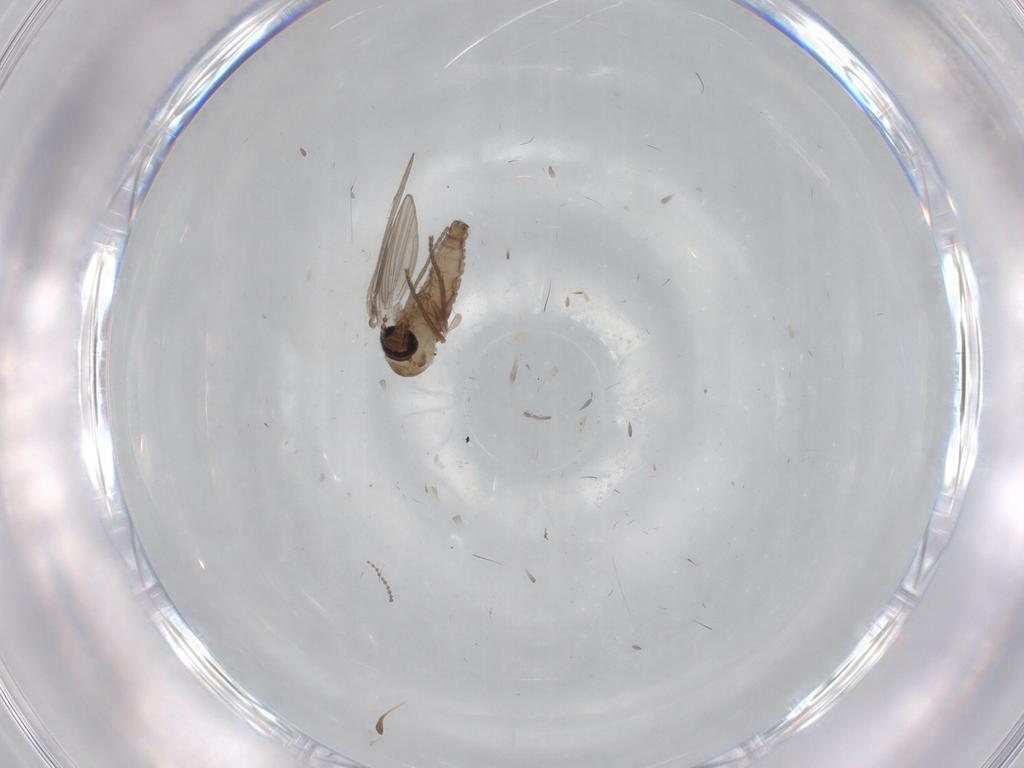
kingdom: Animalia
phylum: Arthropoda
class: Insecta
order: Diptera
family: Psychodidae
